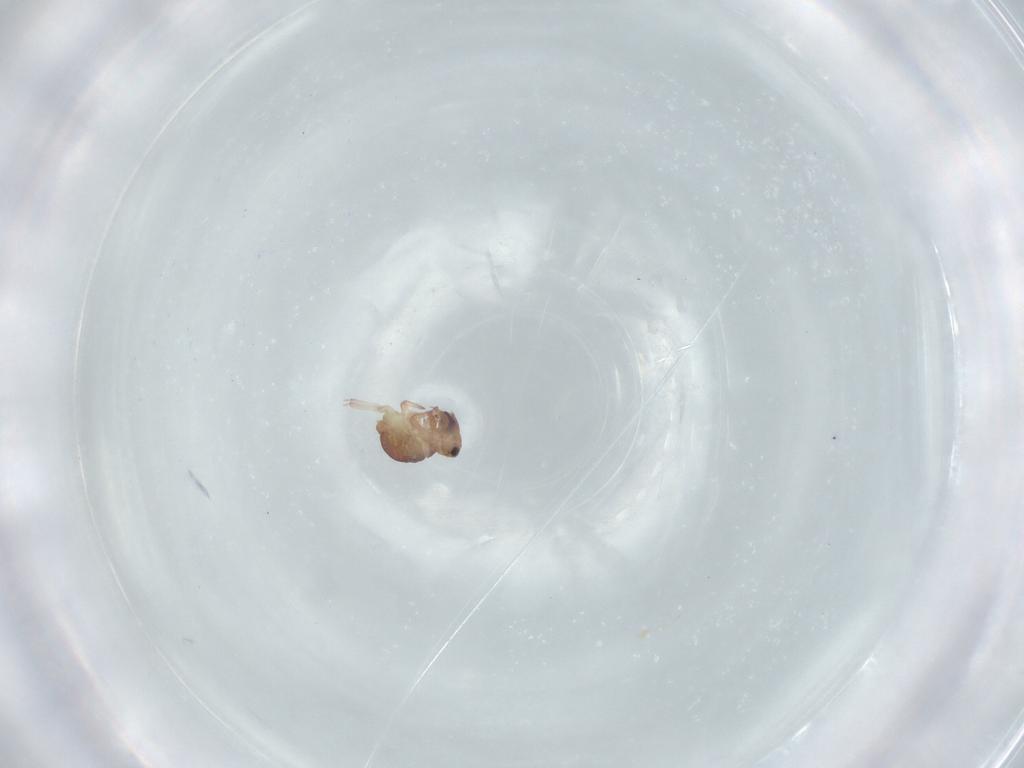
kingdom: Animalia
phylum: Arthropoda
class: Collembola
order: Symphypleona
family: Sminthurididae
